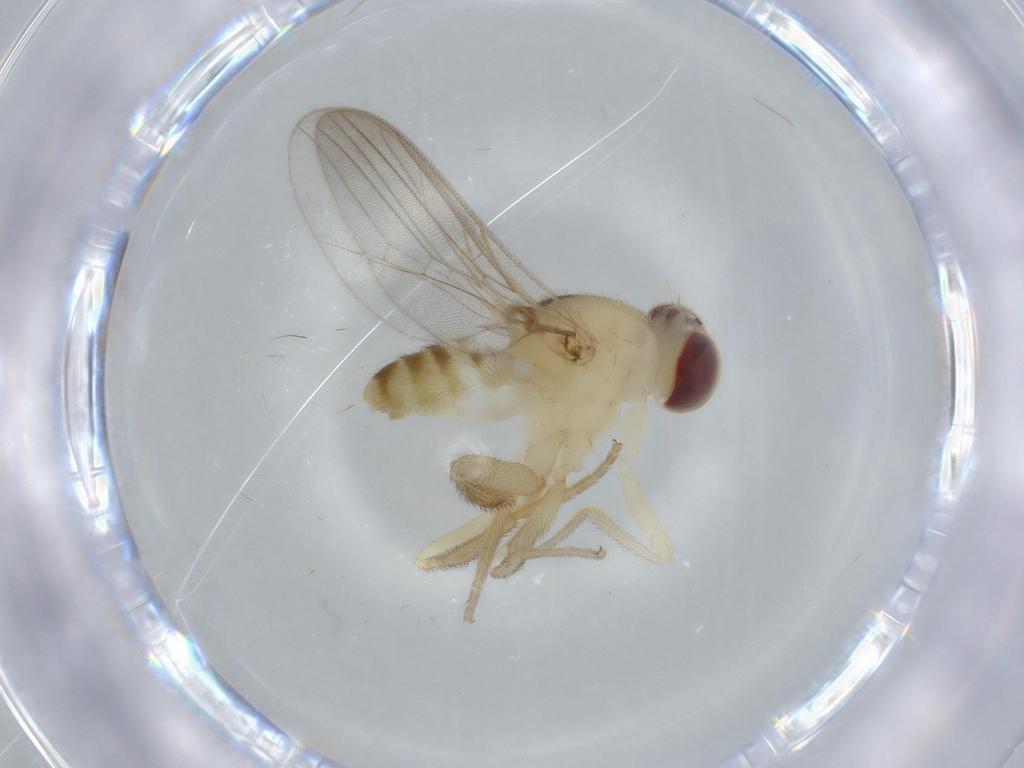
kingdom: Animalia
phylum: Arthropoda
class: Insecta
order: Diptera
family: Chloropidae
